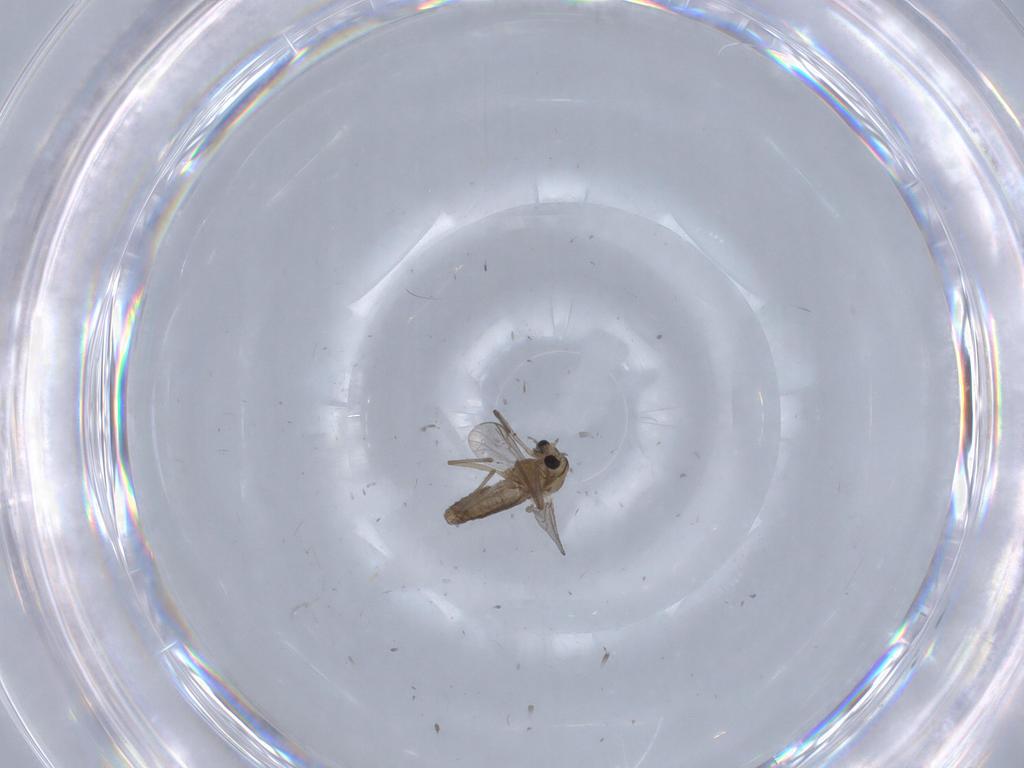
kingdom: Animalia
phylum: Arthropoda
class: Insecta
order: Diptera
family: Chironomidae
